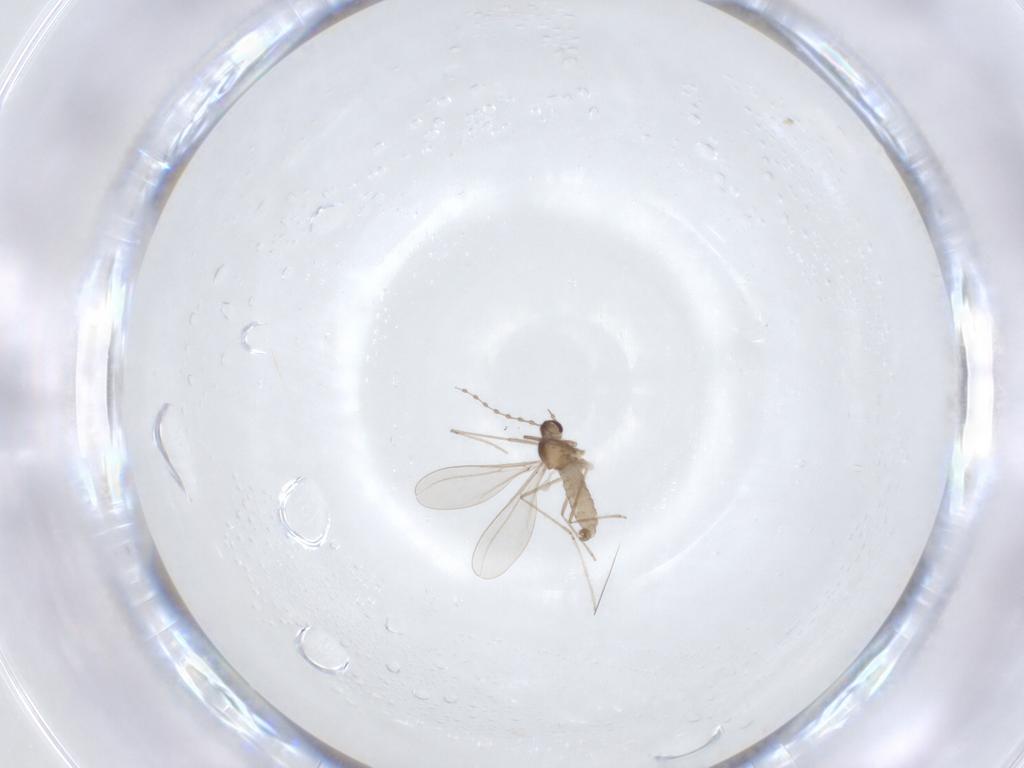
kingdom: Animalia
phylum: Arthropoda
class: Insecta
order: Diptera
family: Cecidomyiidae
